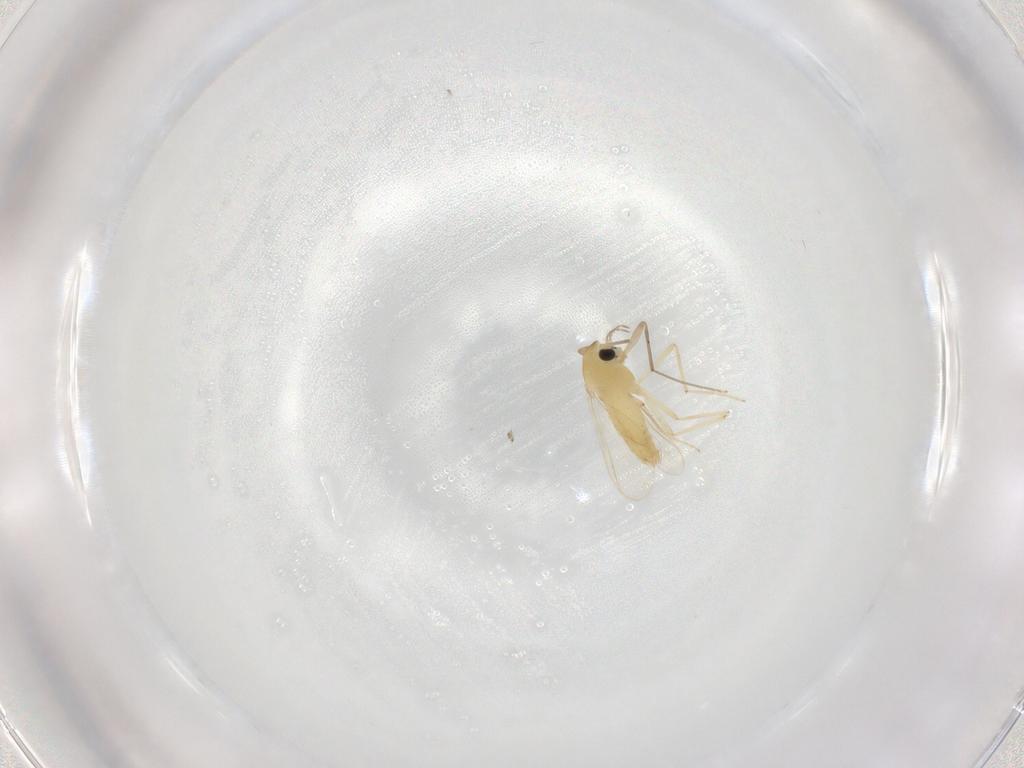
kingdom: Animalia
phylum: Arthropoda
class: Insecta
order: Diptera
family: Chironomidae
